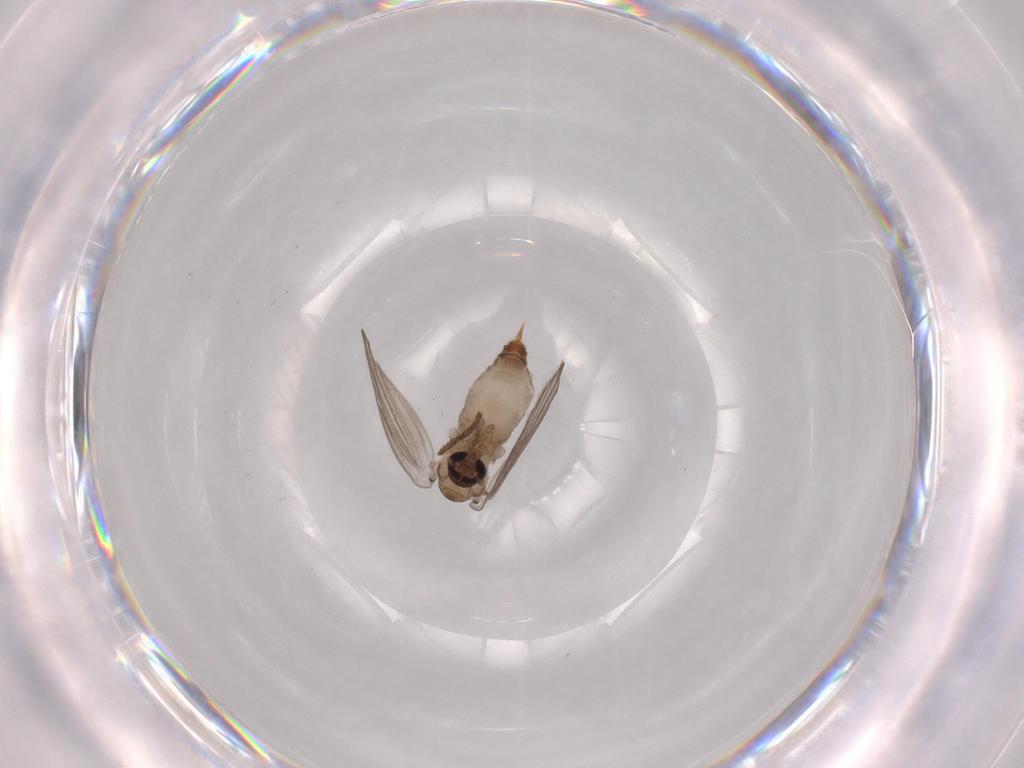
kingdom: Animalia
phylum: Arthropoda
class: Insecta
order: Diptera
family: Psychodidae
